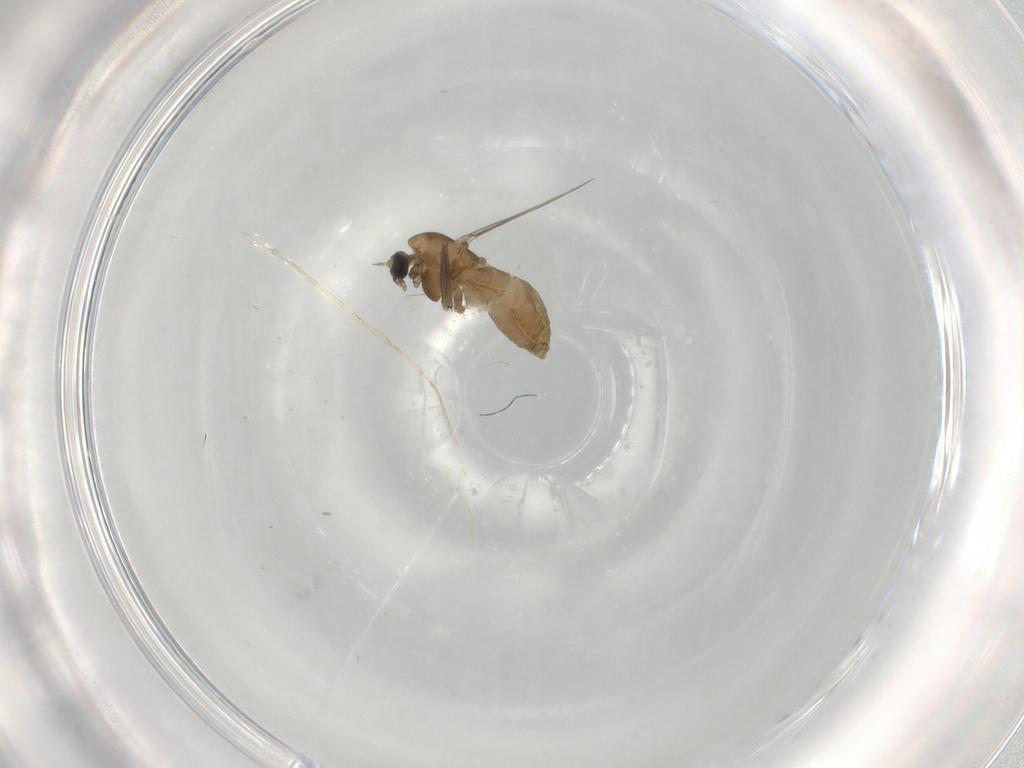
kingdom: Animalia
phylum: Arthropoda
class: Insecta
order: Diptera
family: Chironomidae
